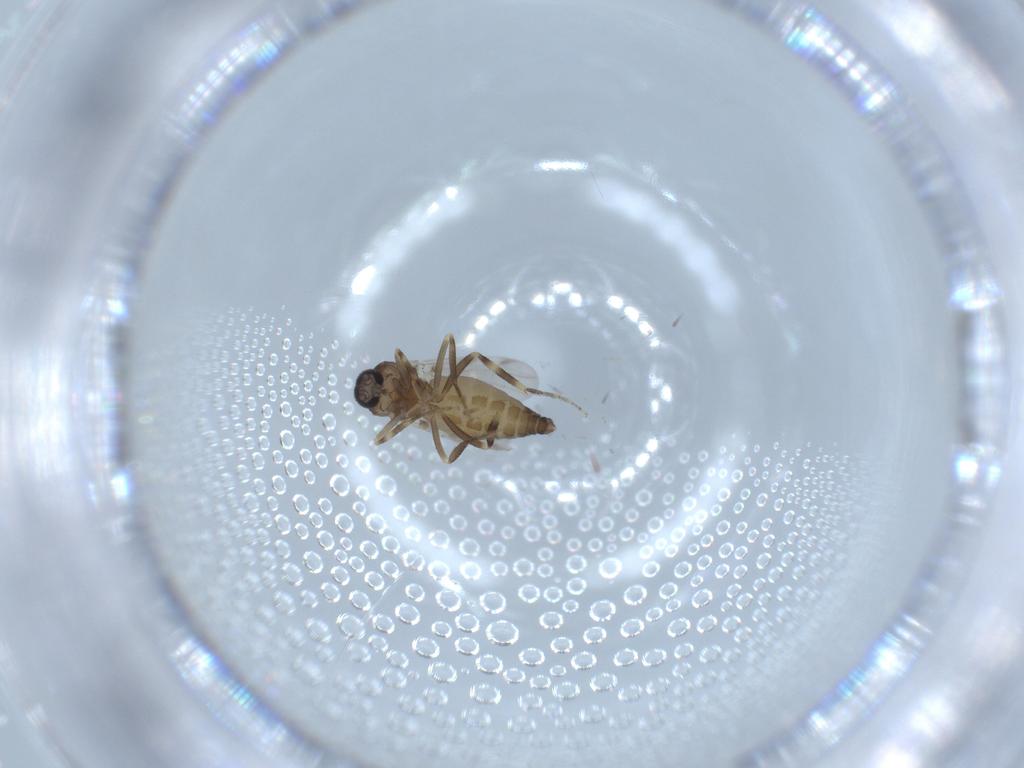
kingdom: Animalia
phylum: Arthropoda
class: Insecta
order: Diptera
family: Ceratopogonidae
